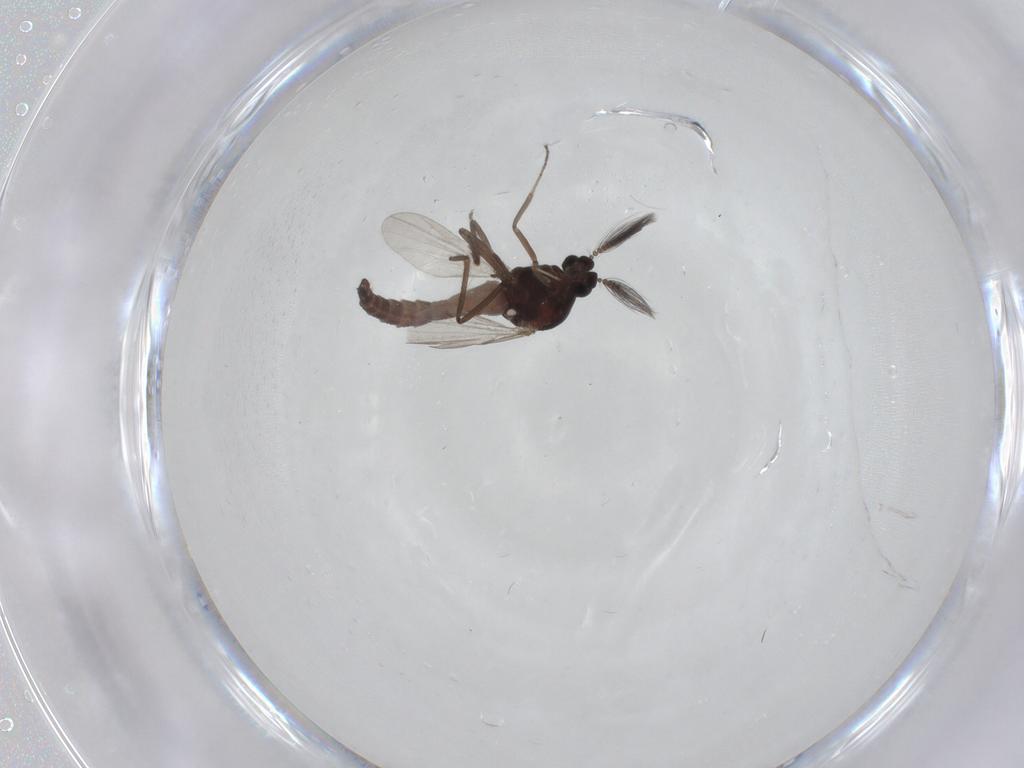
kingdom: Animalia
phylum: Arthropoda
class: Insecta
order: Diptera
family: Ceratopogonidae
